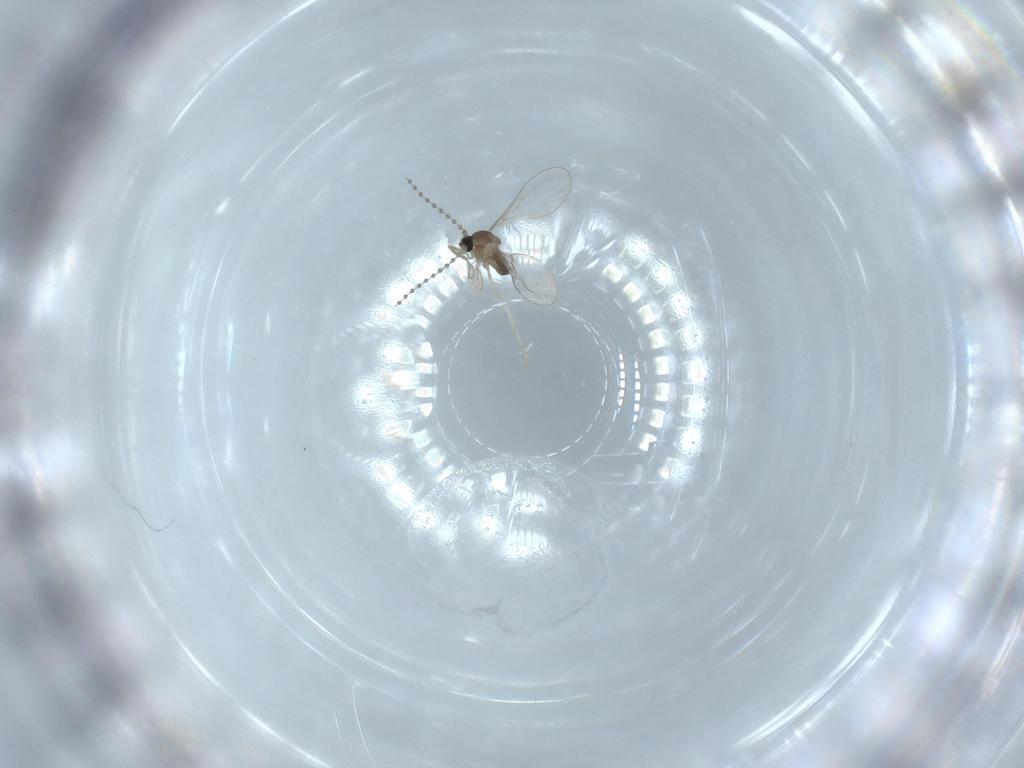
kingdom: Animalia
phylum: Arthropoda
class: Insecta
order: Diptera
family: Cecidomyiidae
